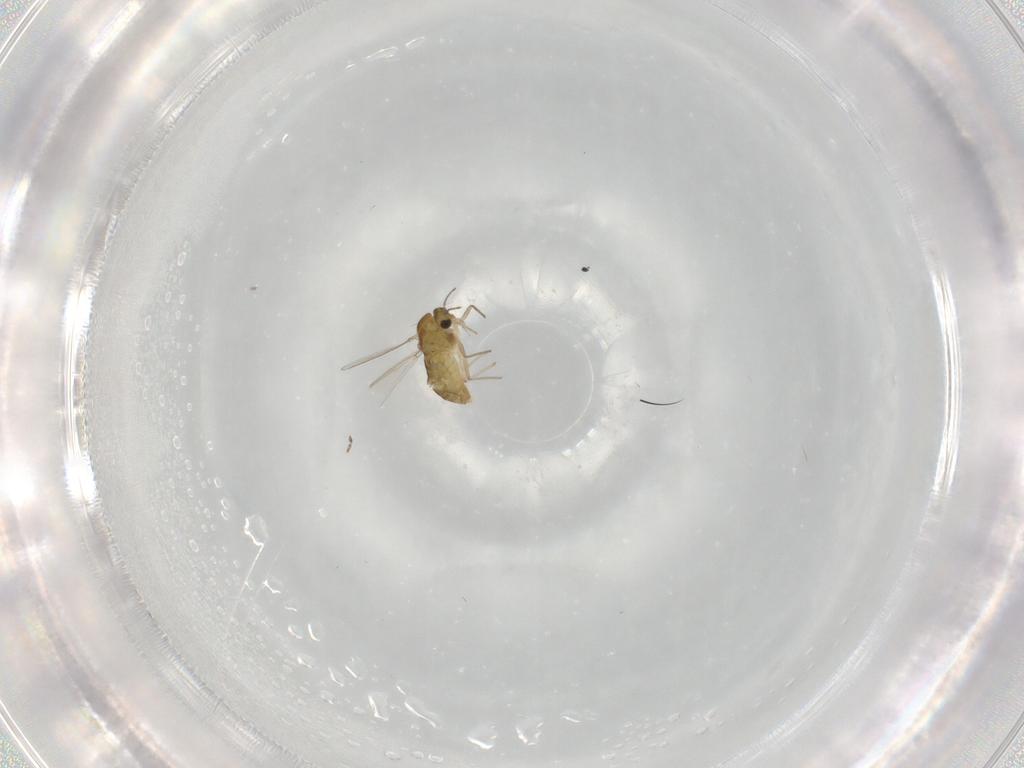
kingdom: Animalia
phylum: Arthropoda
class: Insecta
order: Diptera
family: Chironomidae
